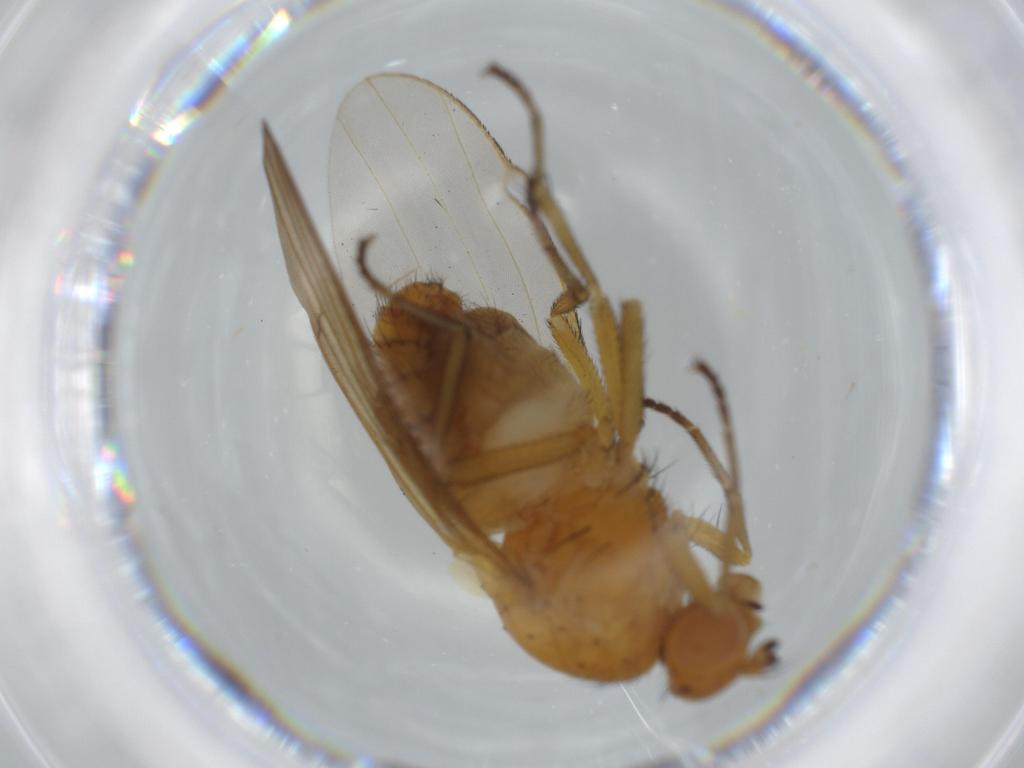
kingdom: Animalia
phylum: Arthropoda
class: Insecta
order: Diptera
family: Lauxaniidae
